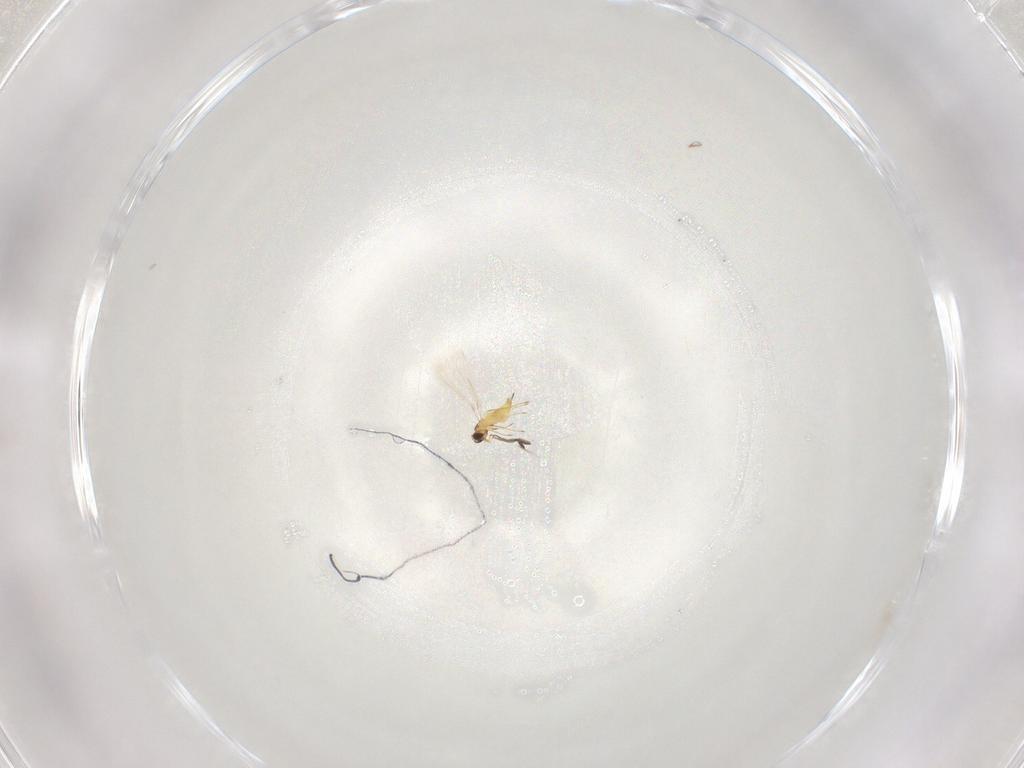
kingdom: Animalia
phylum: Arthropoda
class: Insecta
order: Hymenoptera
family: Mymaridae
